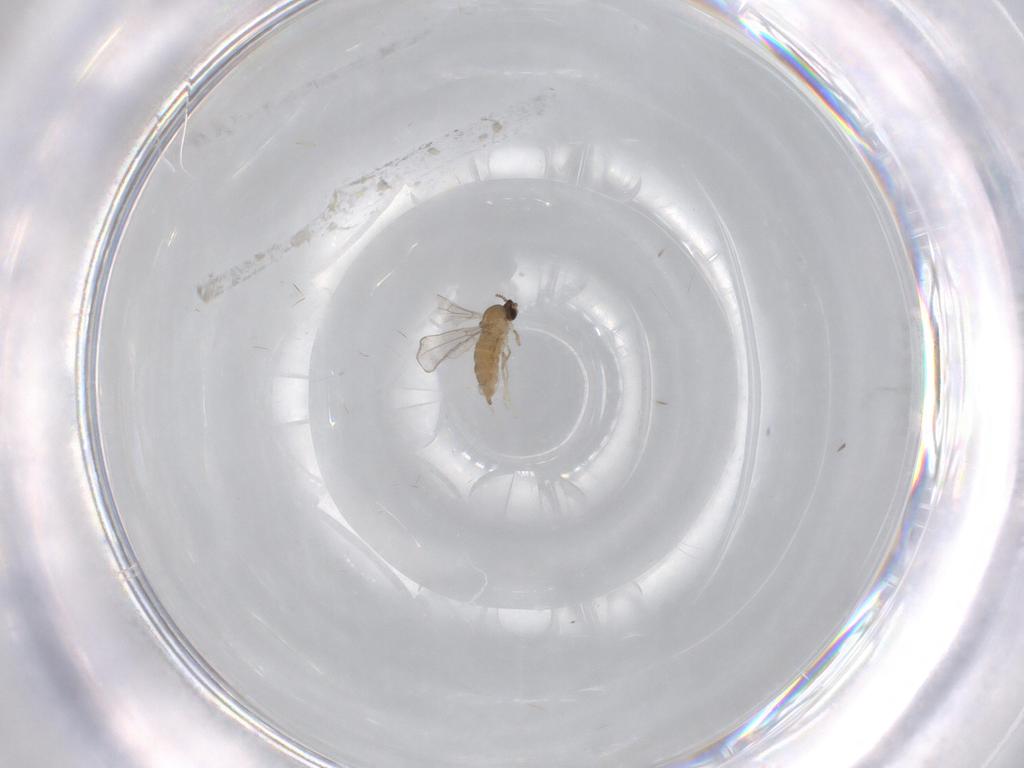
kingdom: Animalia
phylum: Arthropoda
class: Insecta
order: Diptera
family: Cecidomyiidae
